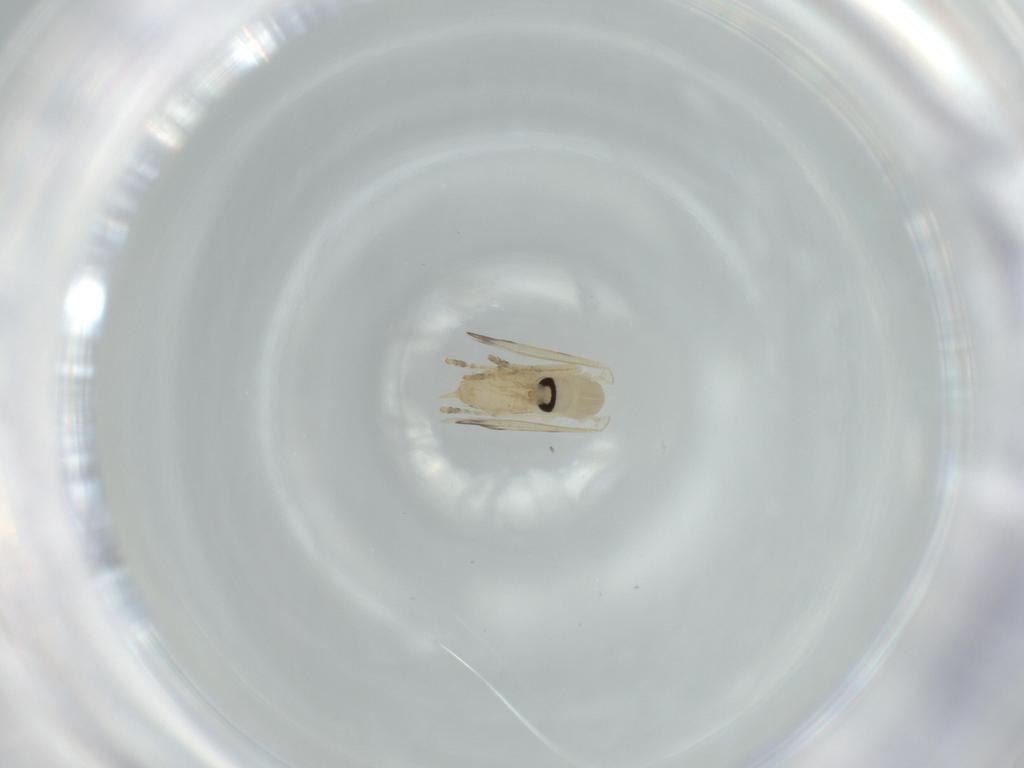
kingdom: Animalia
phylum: Arthropoda
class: Insecta
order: Diptera
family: Psychodidae
